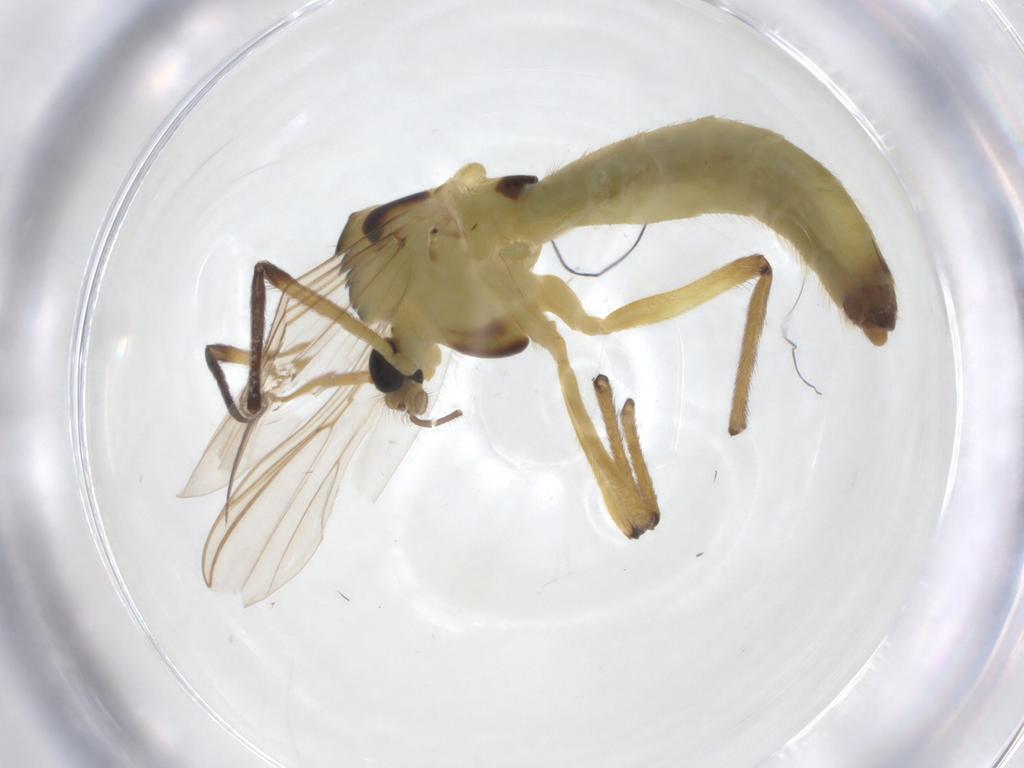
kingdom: Animalia
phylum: Arthropoda
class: Insecta
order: Diptera
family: Chironomidae
